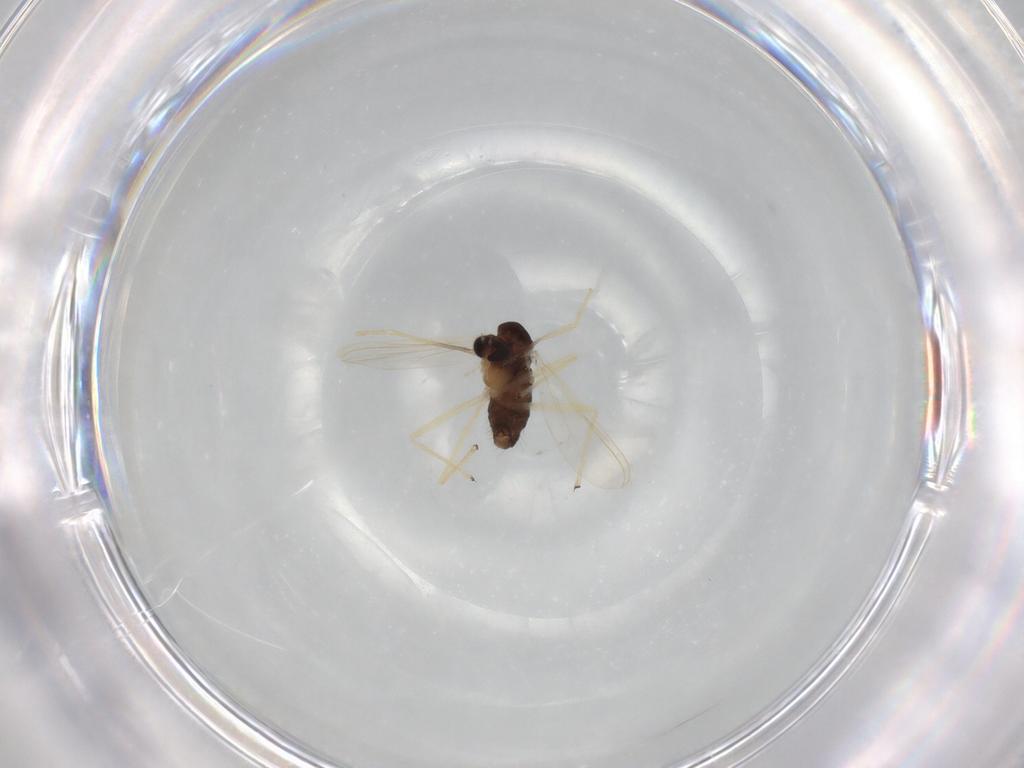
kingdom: Animalia
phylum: Arthropoda
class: Insecta
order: Diptera
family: Chironomidae
